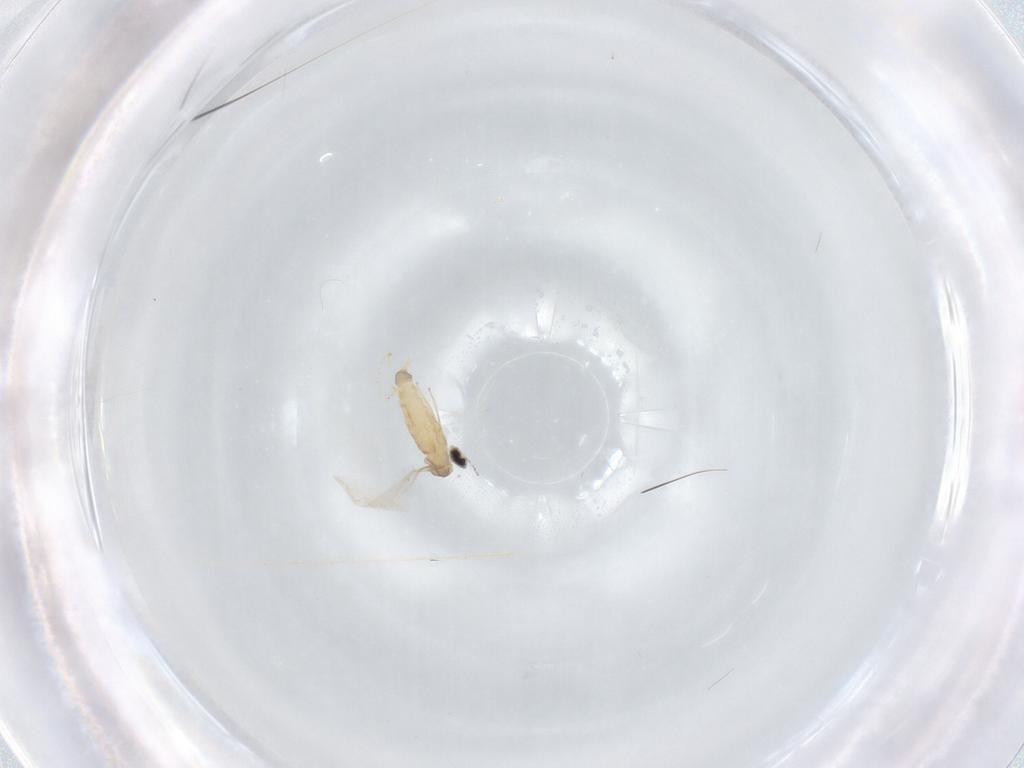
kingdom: Animalia
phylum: Arthropoda
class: Insecta
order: Diptera
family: Cecidomyiidae
